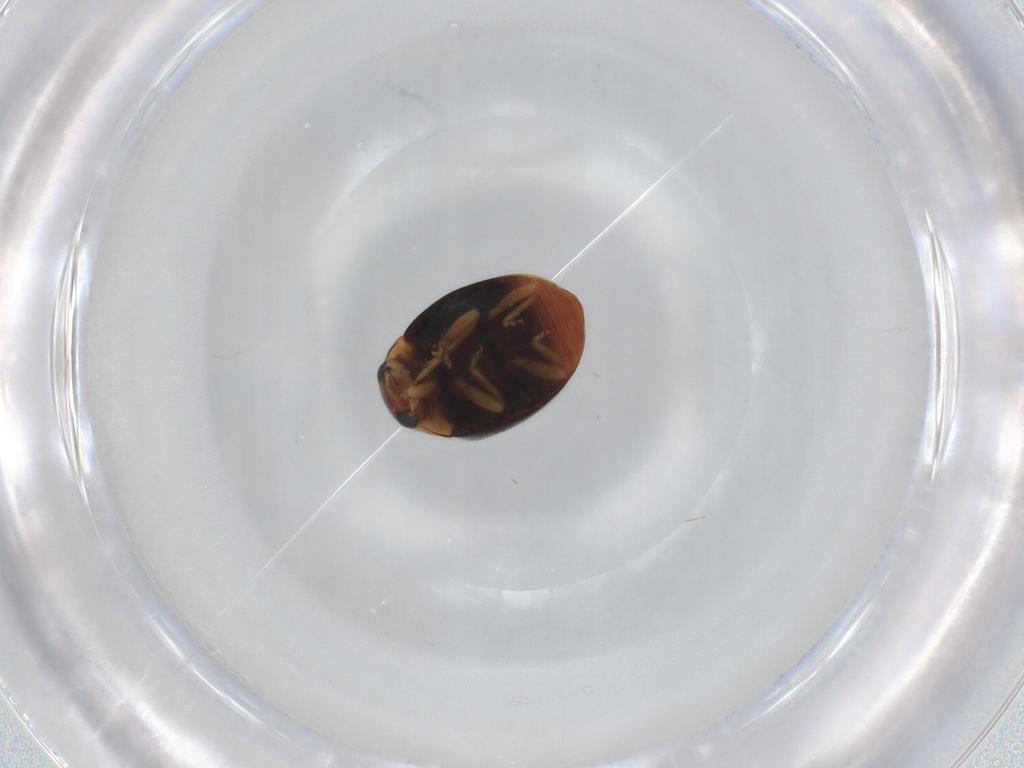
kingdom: Animalia
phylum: Arthropoda
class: Insecta
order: Coleoptera
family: Coccinellidae
